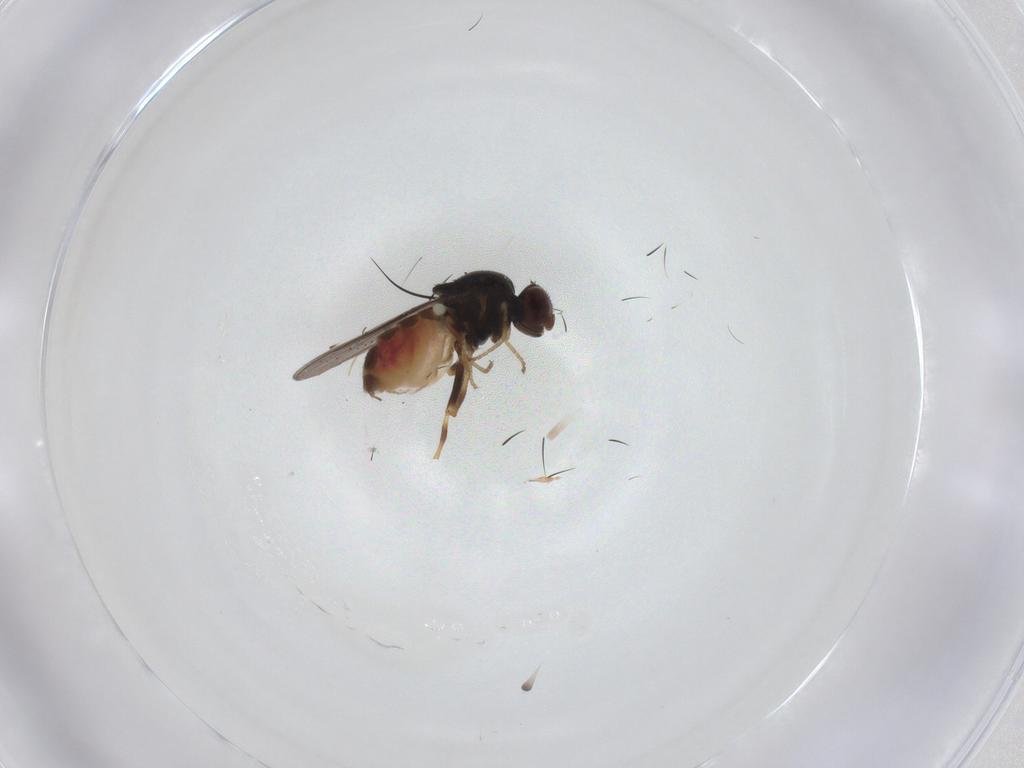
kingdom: Animalia
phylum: Arthropoda
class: Insecta
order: Diptera
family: Chloropidae
